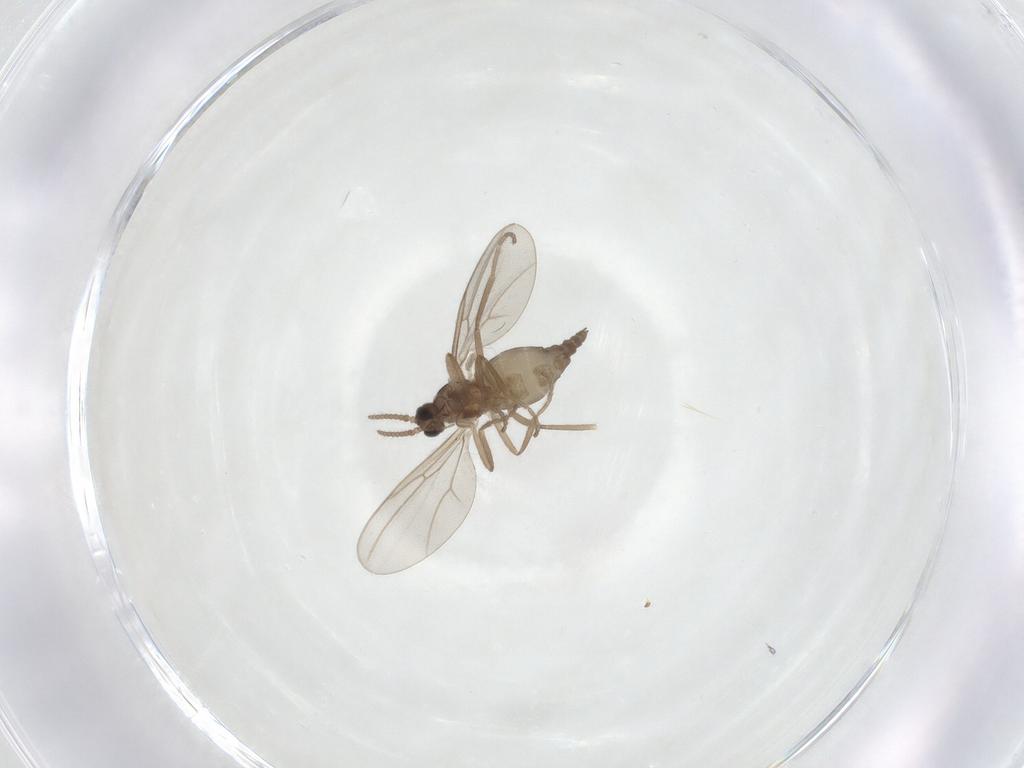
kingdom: Animalia
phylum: Arthropoda
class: Insecta
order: Diptera
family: Cecidomyiidae
